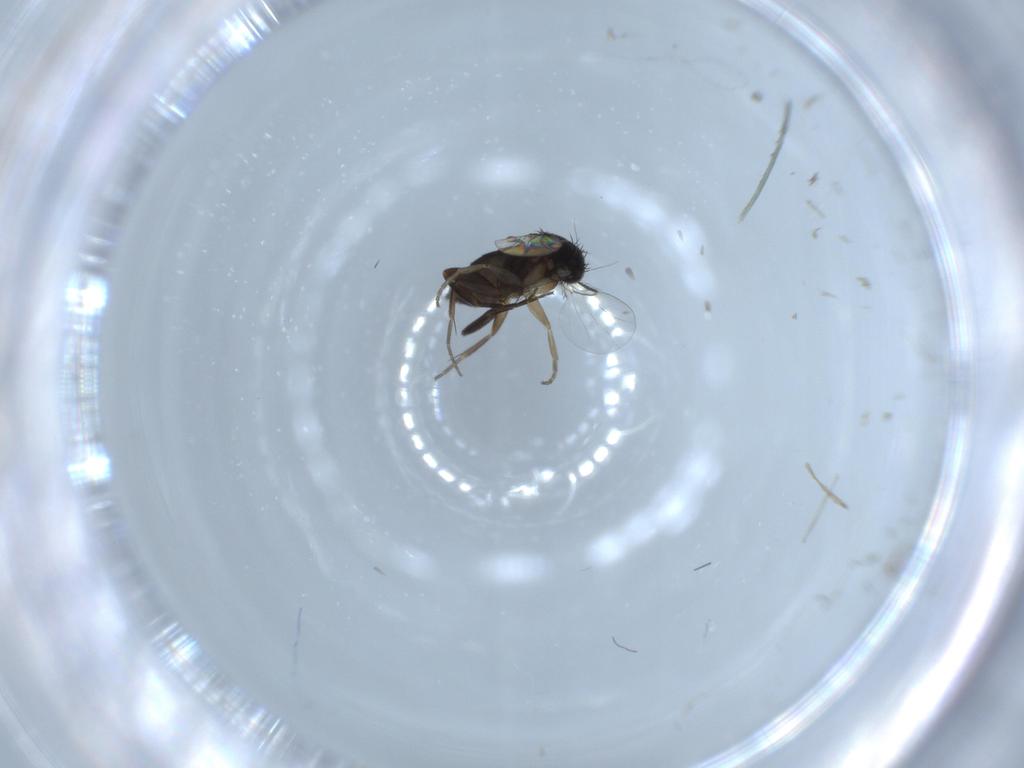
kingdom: Animalia
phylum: Arthropoda
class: Insecta
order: Diptera
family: Phoridae
